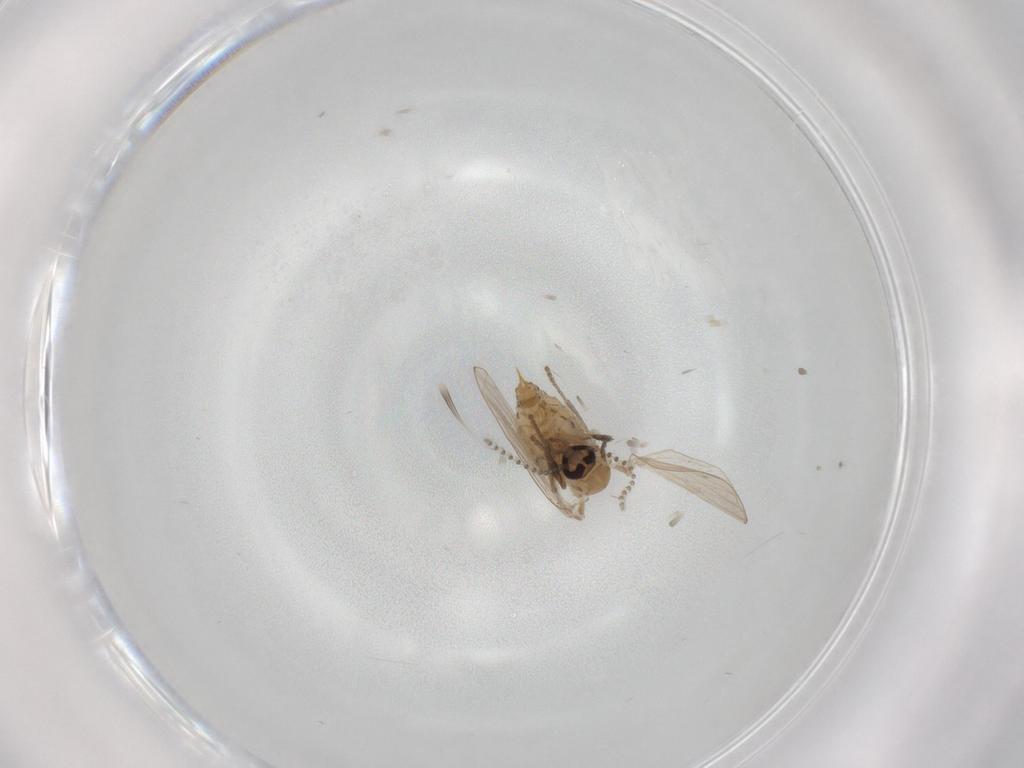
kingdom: Animalia
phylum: Arthropoda
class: Insecta
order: Diptera
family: Psychodidae
